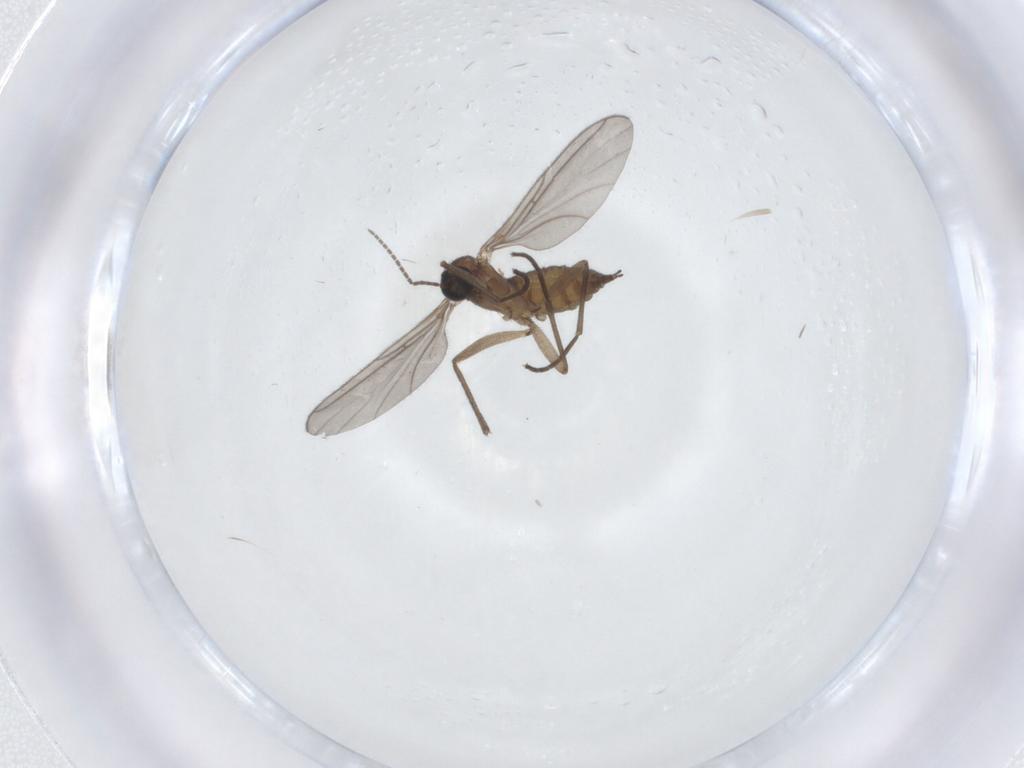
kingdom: Animalia
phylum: Arthropoda
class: Insecta
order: Diptera
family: Sciaridae
